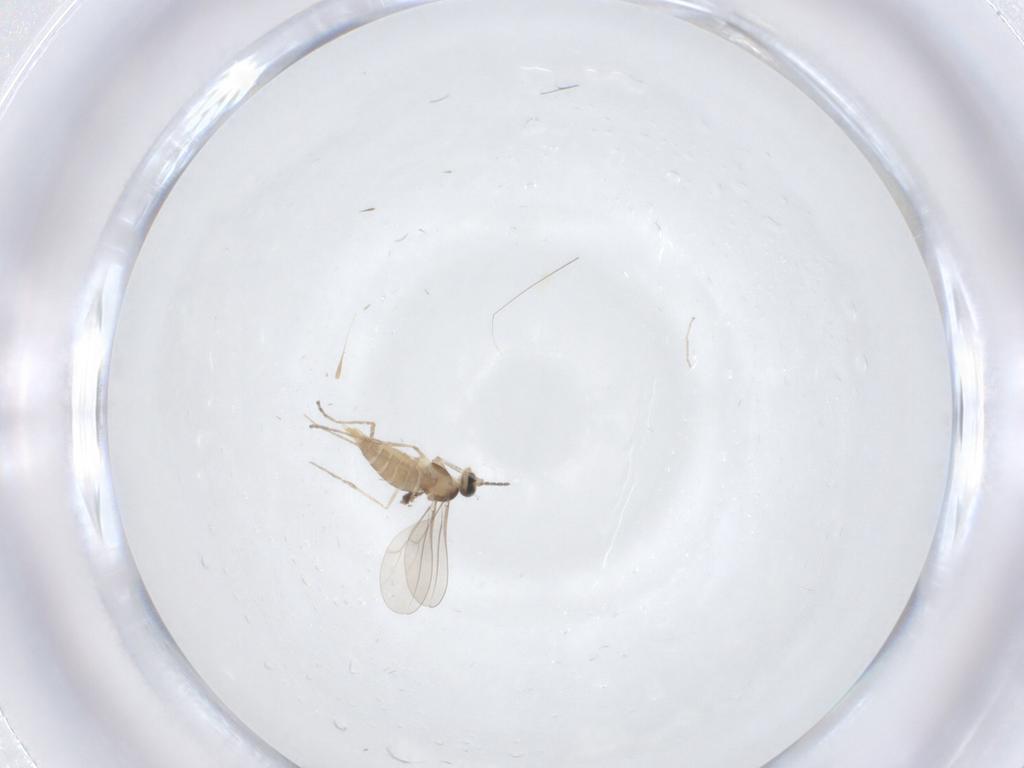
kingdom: Animalia
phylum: Arthropoda
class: Insecta
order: Diptera
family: Cecidomyiidae
